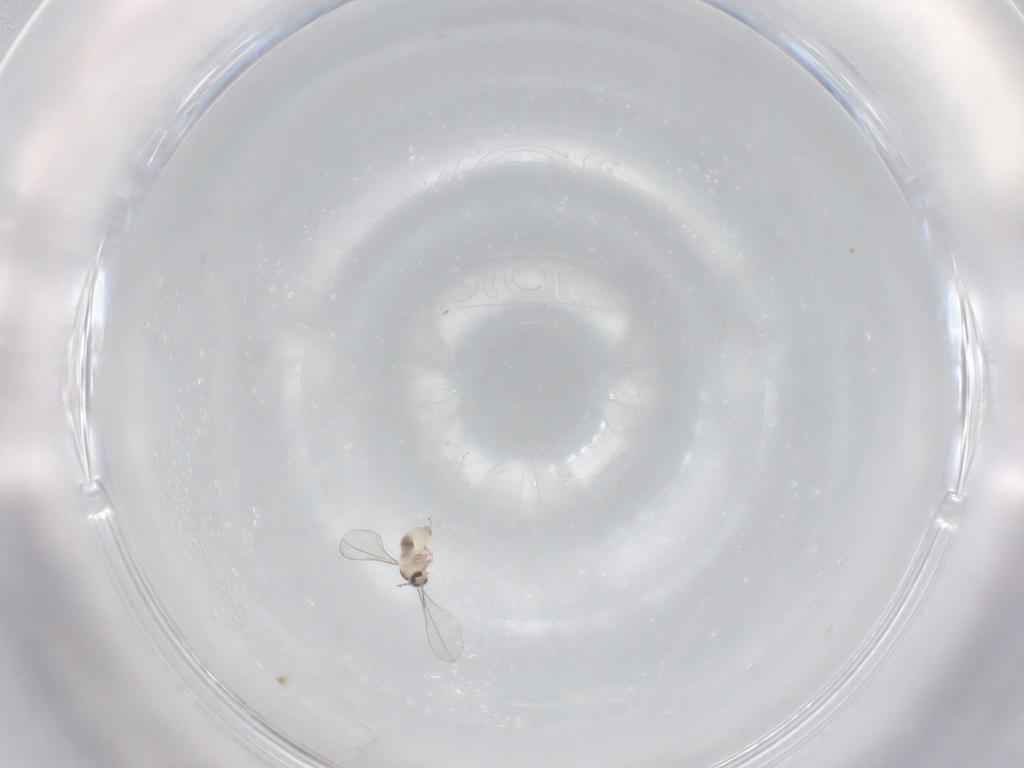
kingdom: Animalia
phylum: Arthropoda
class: Insecta
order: Diptera
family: Cecidomyiidae
